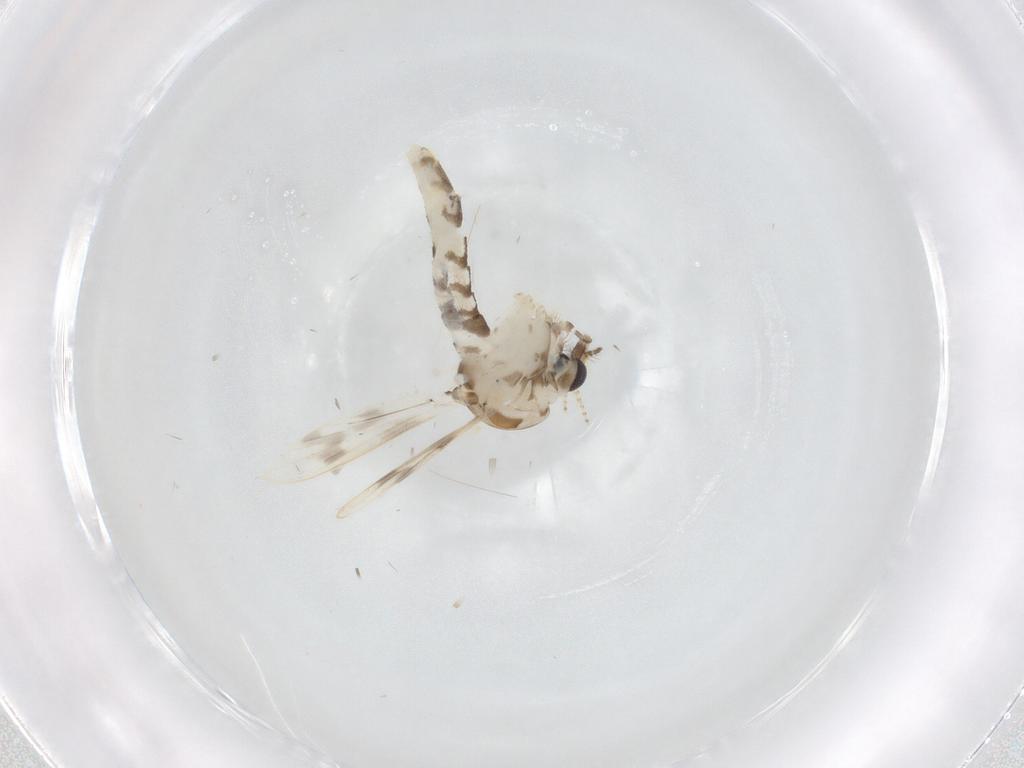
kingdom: Animalia
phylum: Arthropoda
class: Insecta
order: Diptera
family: Corethrellidae
